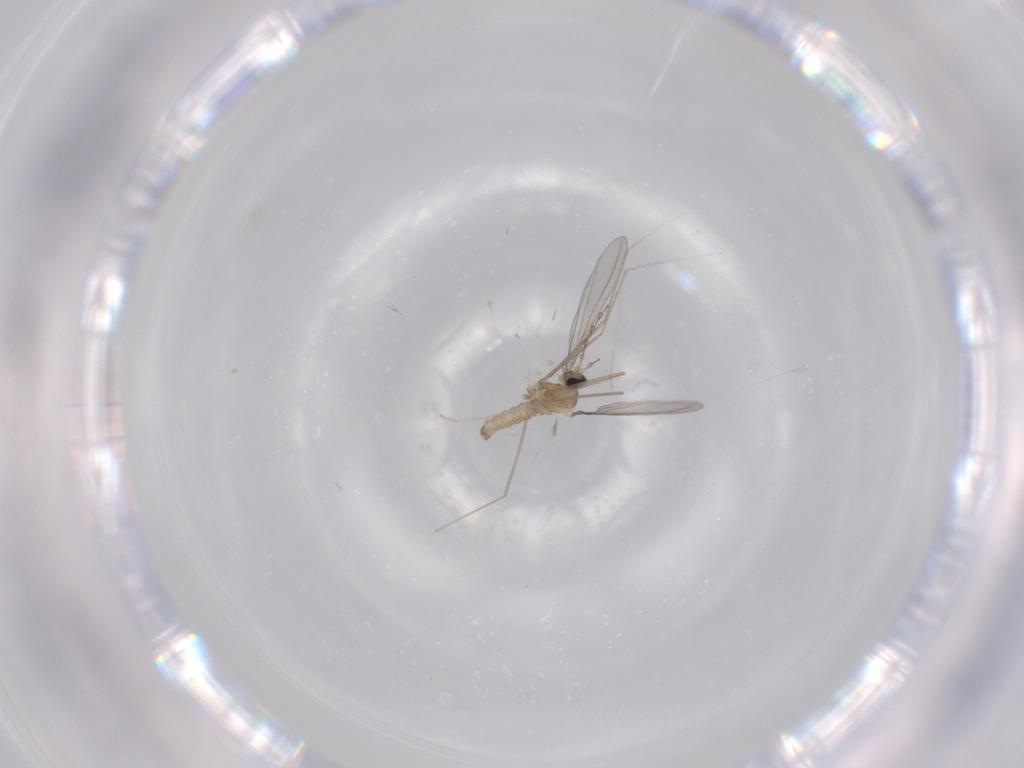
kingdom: Animalia
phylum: Arthropoda
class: Insecta
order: Diptera
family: Cecidomyiidae
